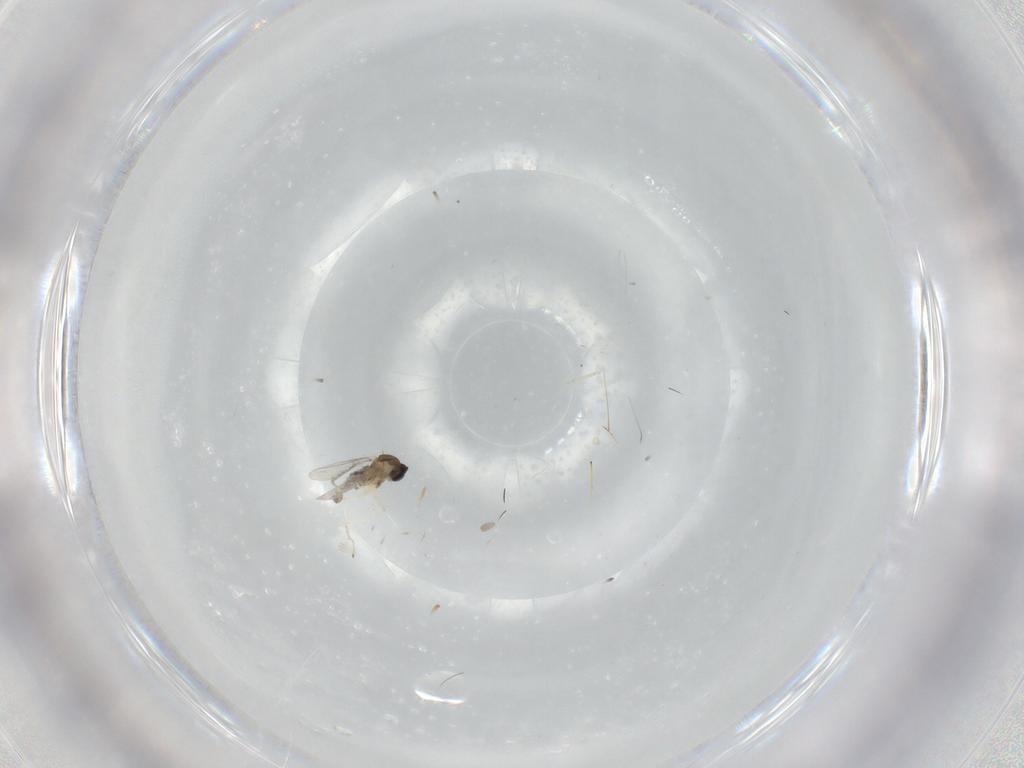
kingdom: Animalia
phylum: Arthropoda
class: Insecta
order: Diptera
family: Cecidomyiidae
